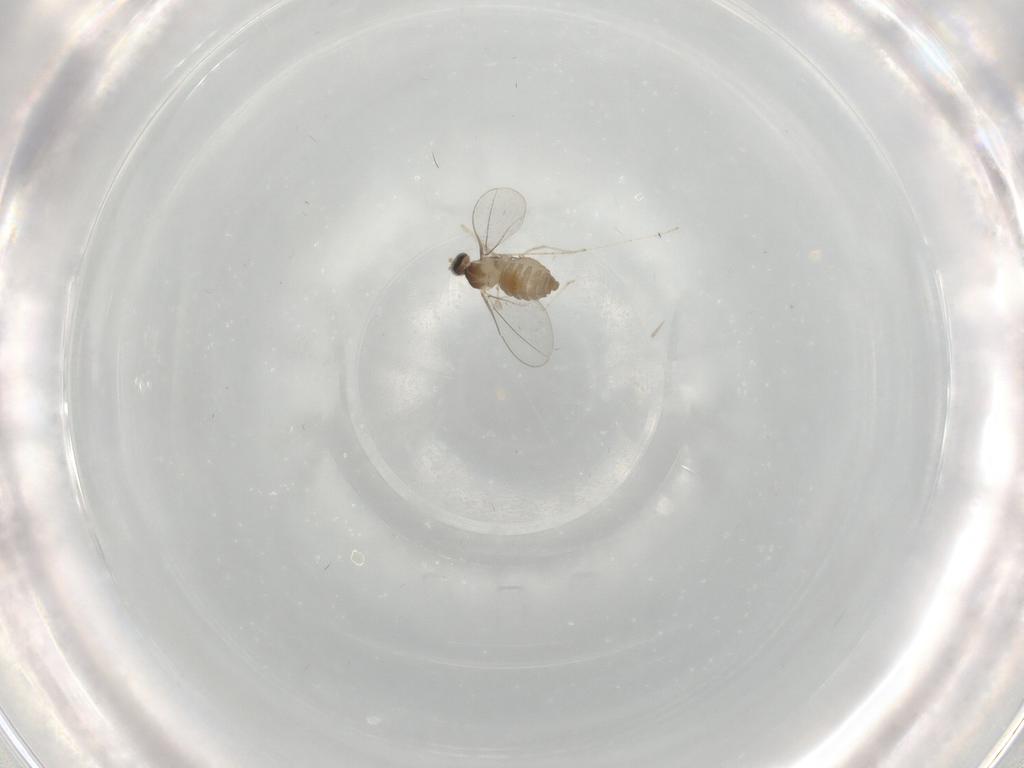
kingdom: Animalia
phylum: Arthropoda
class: Insecta
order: Diptera
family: Cecidomyiidae
